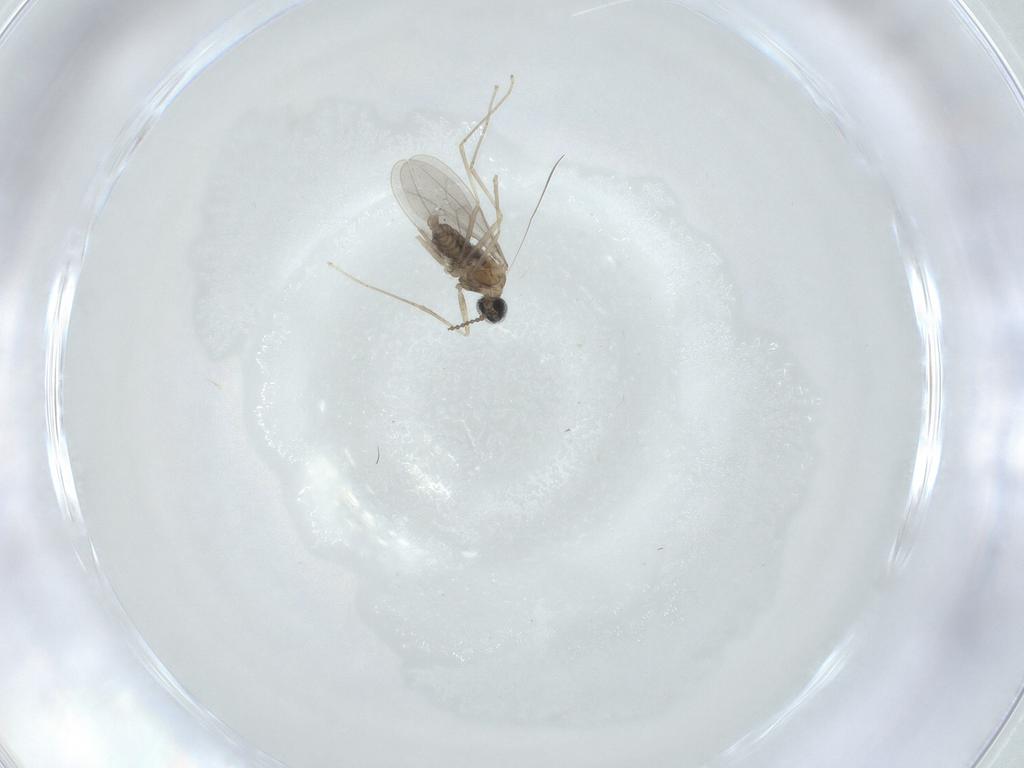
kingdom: Animalia
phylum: Arthropoda
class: Insecta
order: Diptera
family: Cecidomyiidae
